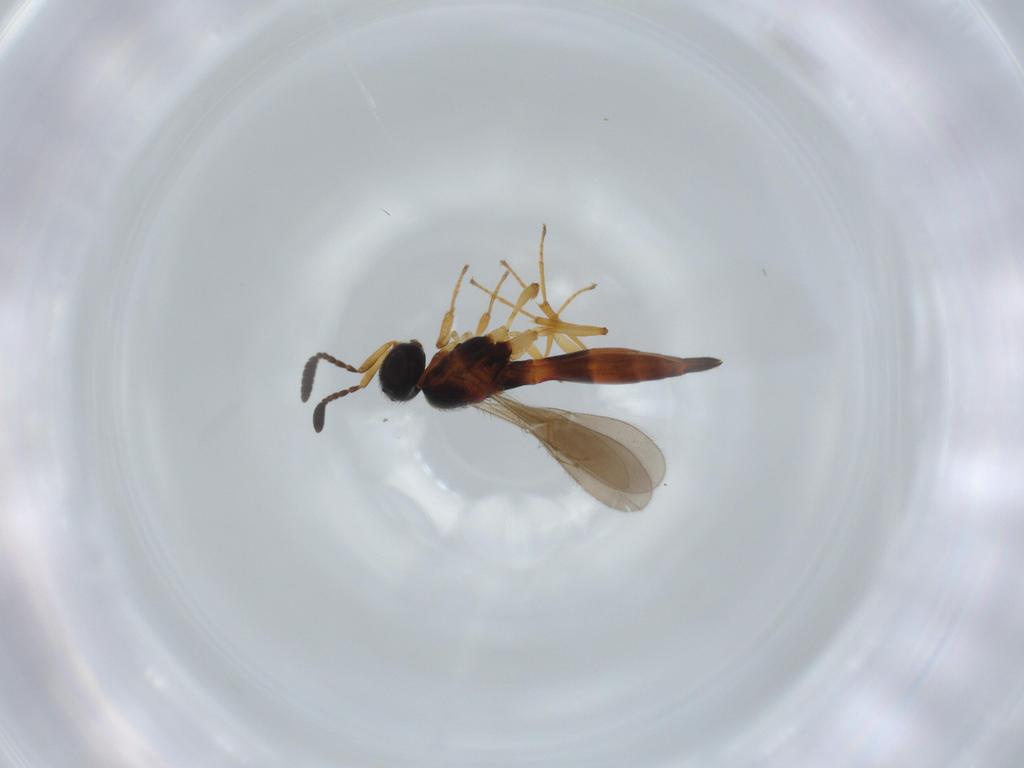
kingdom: Animalia
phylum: Arthropoda
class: Insecta
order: Hymenoptera
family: Scelionidae
